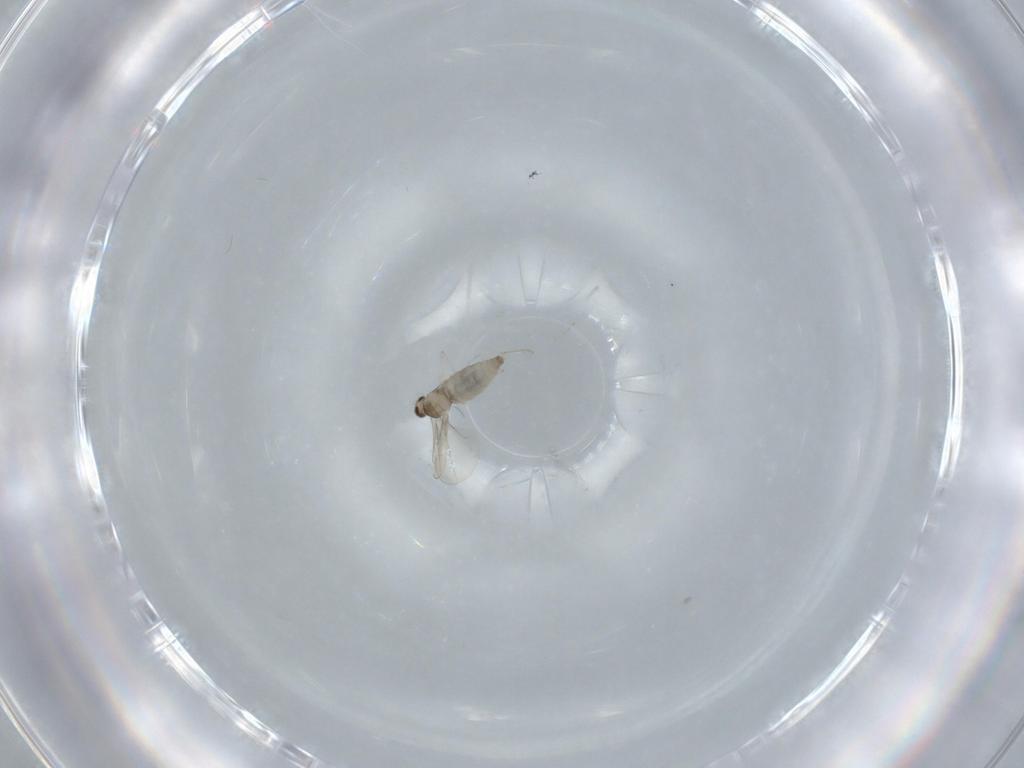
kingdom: Animalia
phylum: Arthropoda
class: Insecta
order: Diptera
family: Cecidomyiidae
